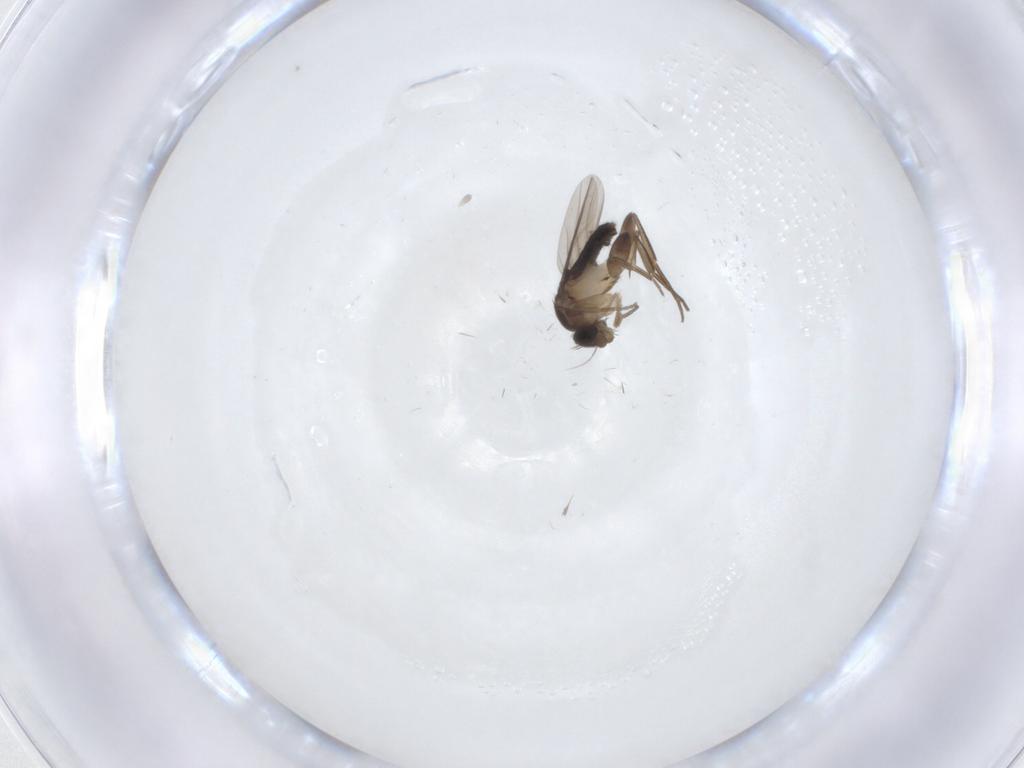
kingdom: Animalia
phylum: Arthropoda
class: Insecta
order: Diptera
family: Phoridae
